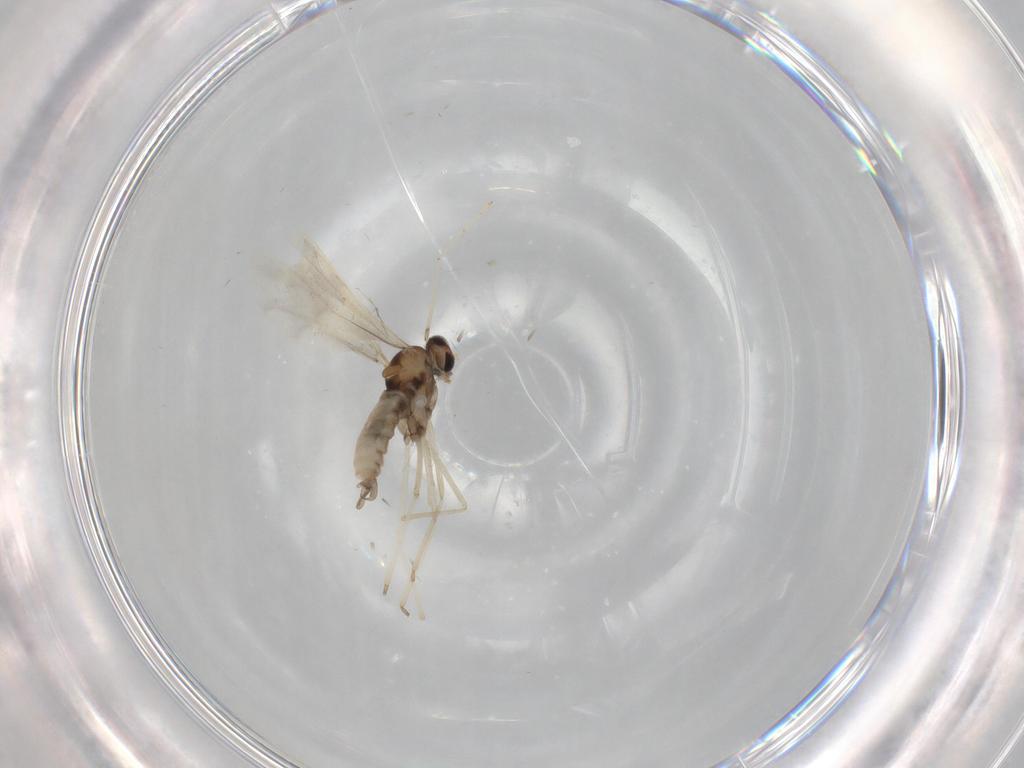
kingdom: Animalia
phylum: Arthropoda
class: Insecta
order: Diptera
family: Cecidomyiidae
